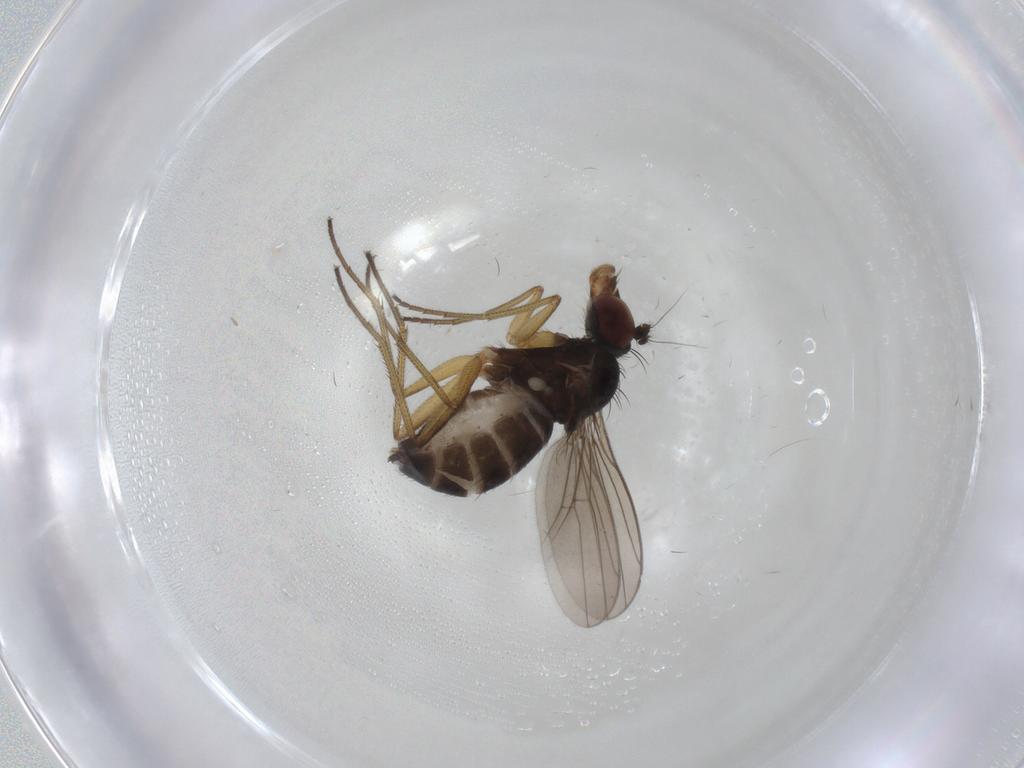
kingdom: Animalia
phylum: Arthropoda
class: Insecta
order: Diptera
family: Dolichopodidae
